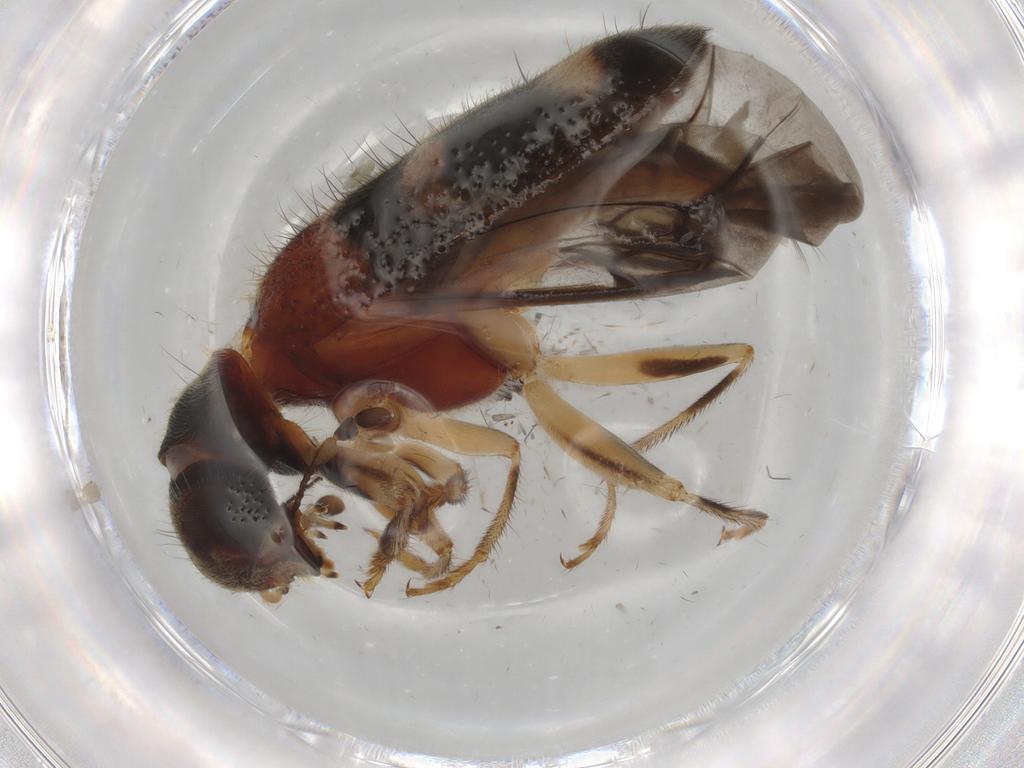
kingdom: Animalia
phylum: Arthropoda
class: Insecta
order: Coleoptera
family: Cleridae
